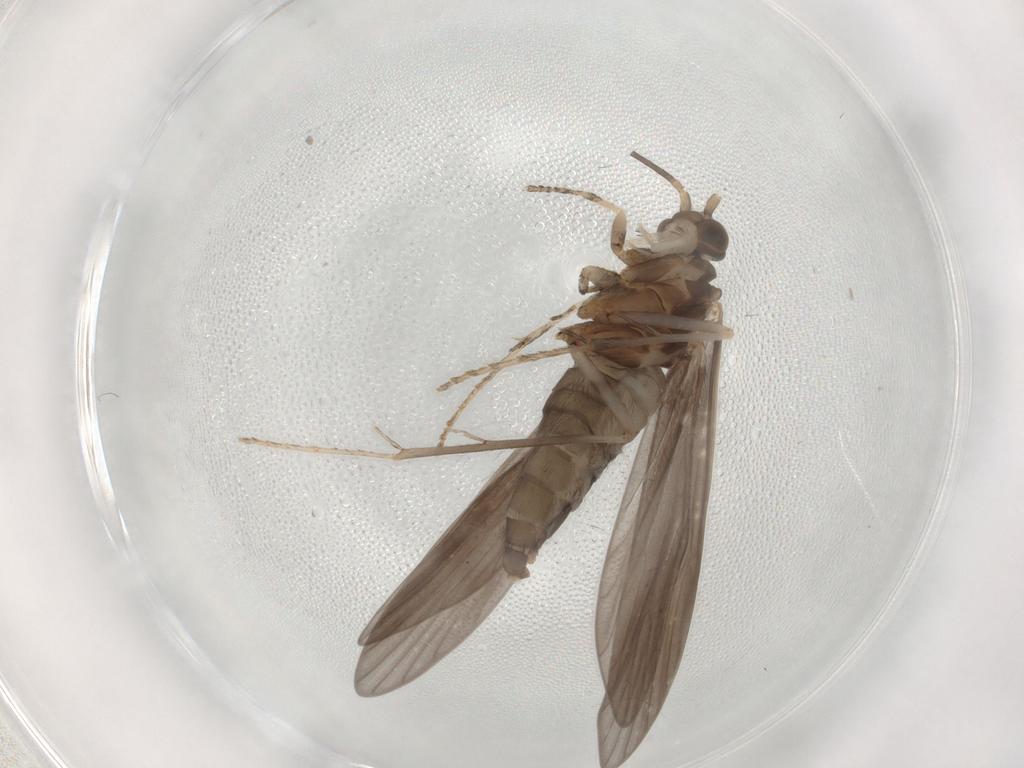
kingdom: Animalia
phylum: Arthropoda
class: Insecta
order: Trichoptera
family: Xiphocentronidae
